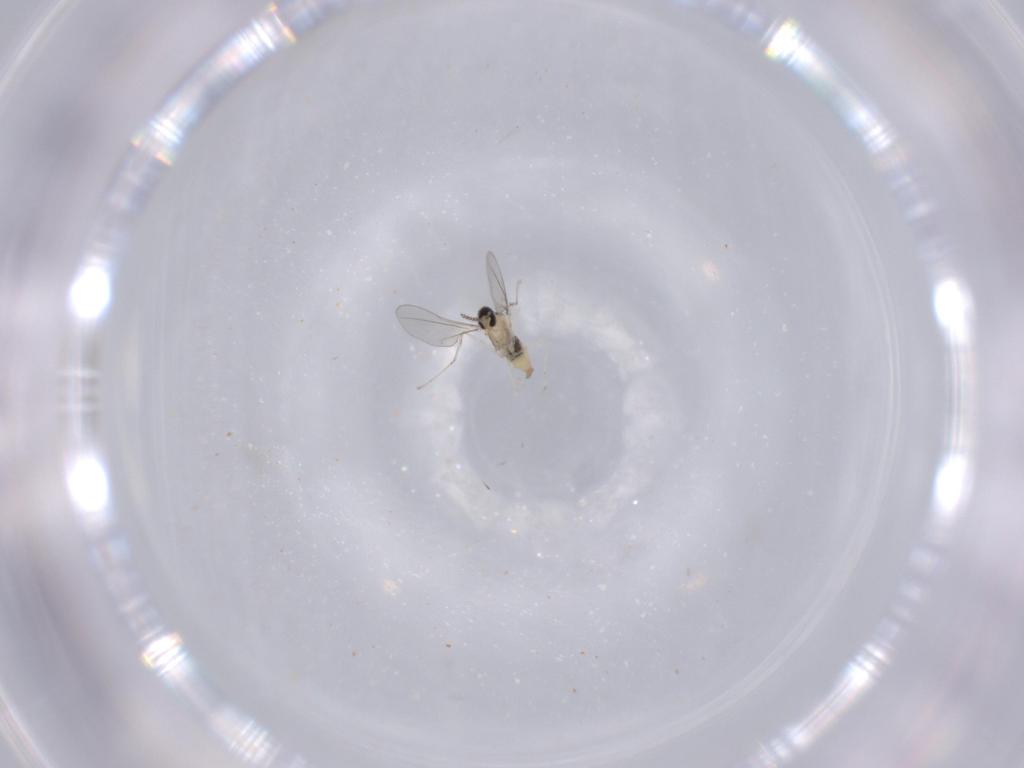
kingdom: Animalia
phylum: Arthropoda
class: Insecta
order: Diptera
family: Cecidomyiidae
